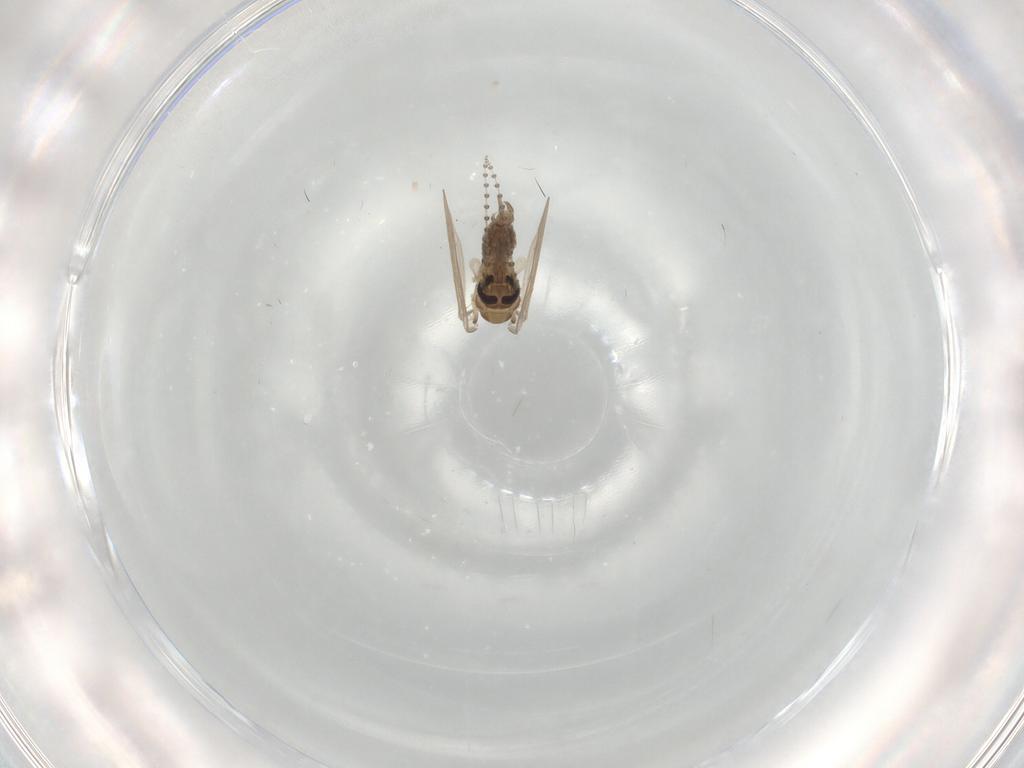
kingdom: Animalia
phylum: Arthropoda
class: Insecta
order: Diptera
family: Psychodidae
